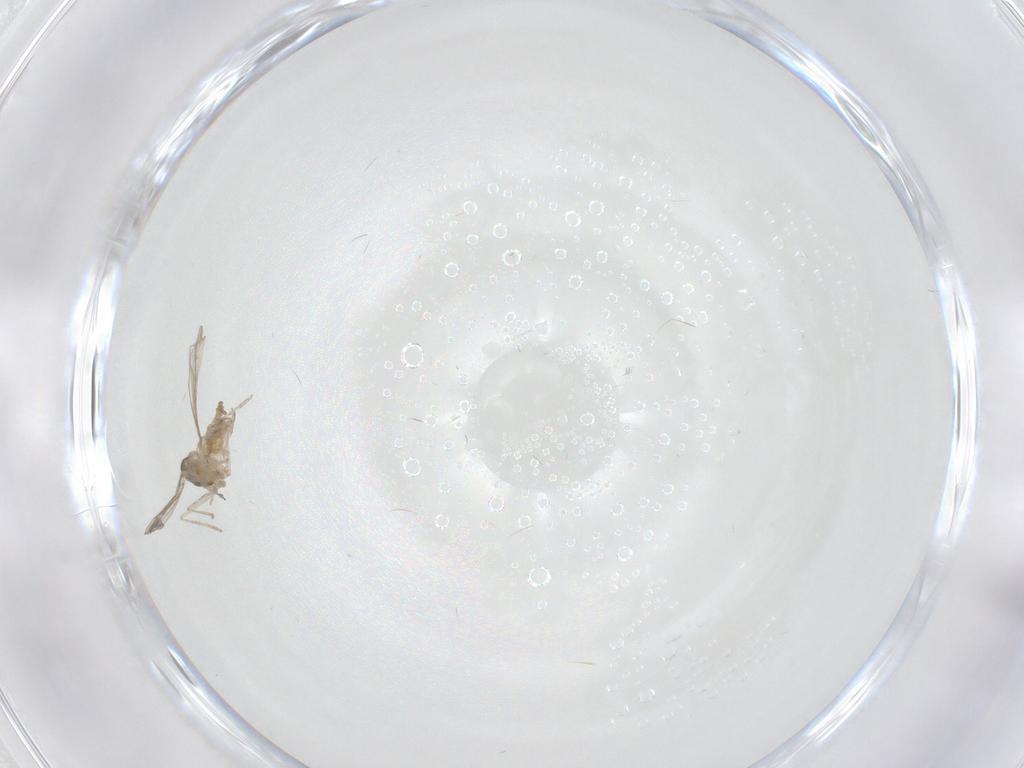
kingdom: Animalia
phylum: Arthropoda
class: Insecta
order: Diptera
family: Cecidomyiidae
